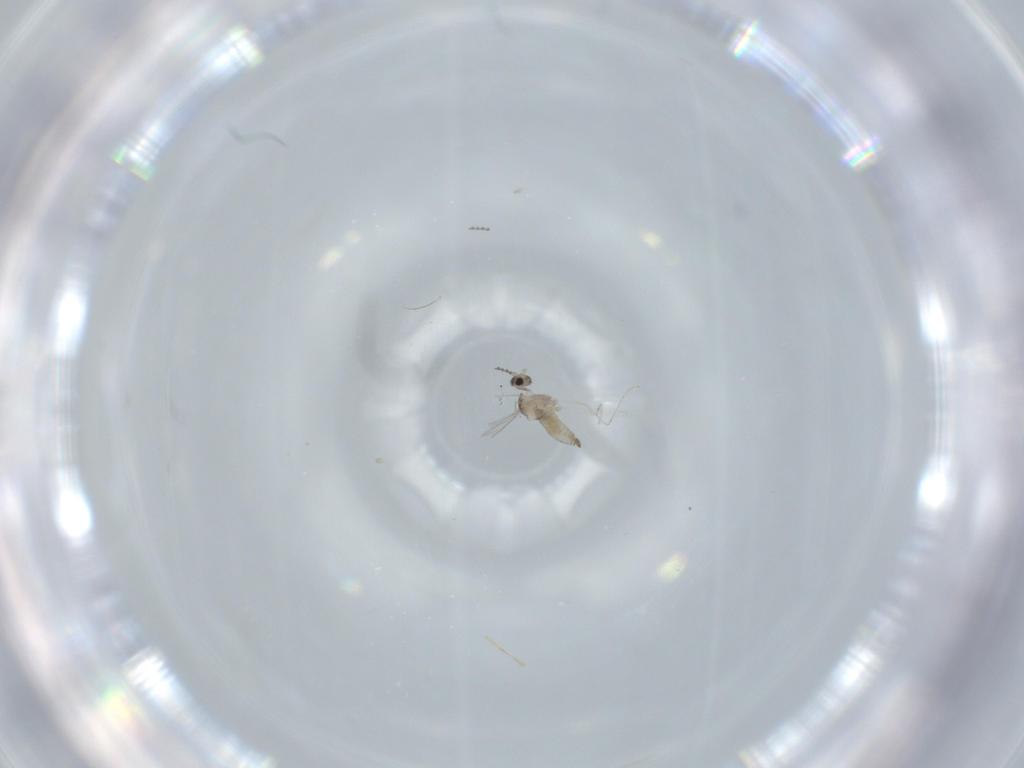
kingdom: Animalia
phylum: Arthropoda
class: Insecta
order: Diptera
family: Cecidomyiidae
